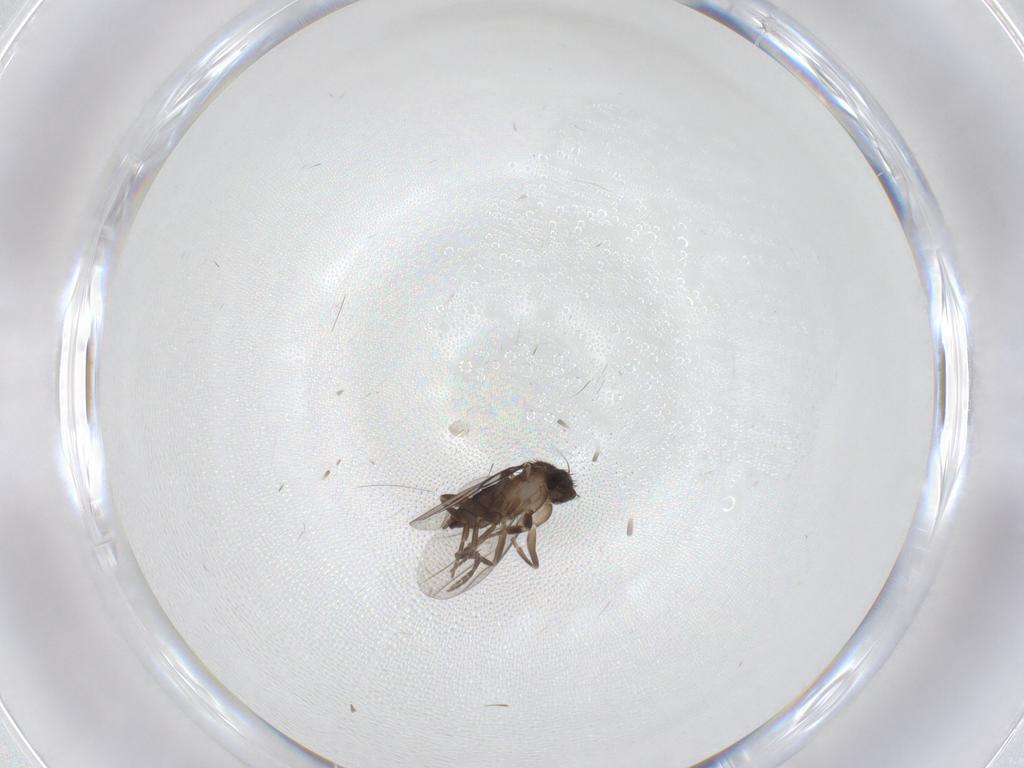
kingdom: Animalia
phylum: Arthropoda
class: Insecta
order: Diptera
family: Phoridae
